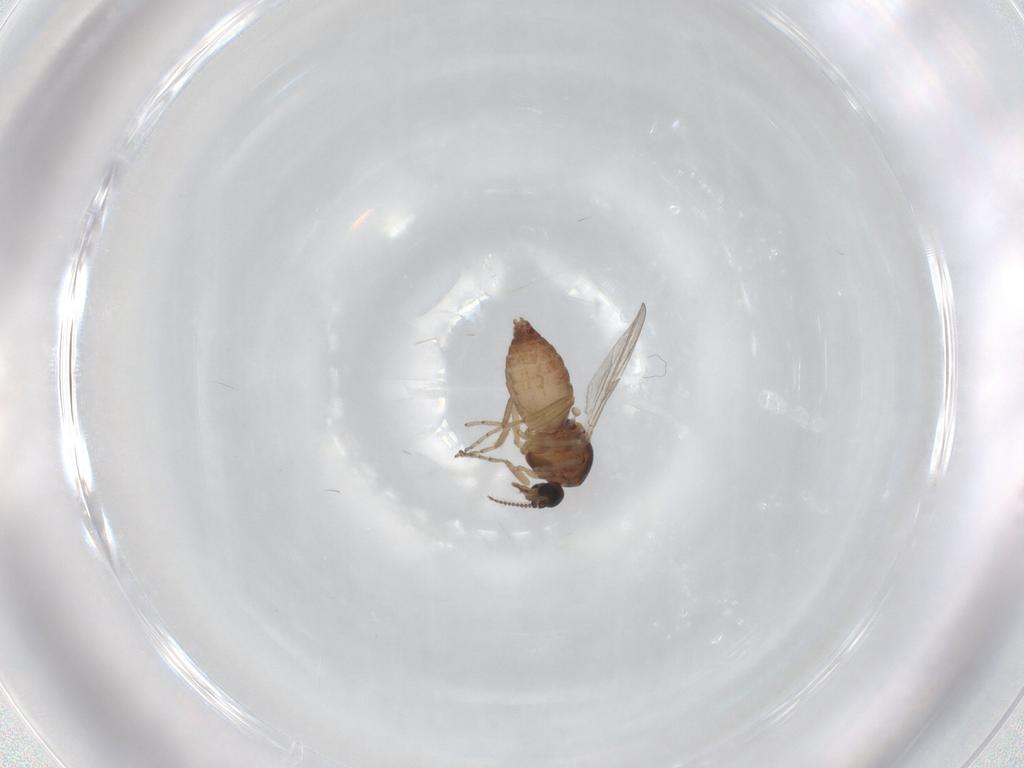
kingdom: Animalia
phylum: Arthropoda
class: Insecta
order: Diptera
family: Ceratopogonidae
